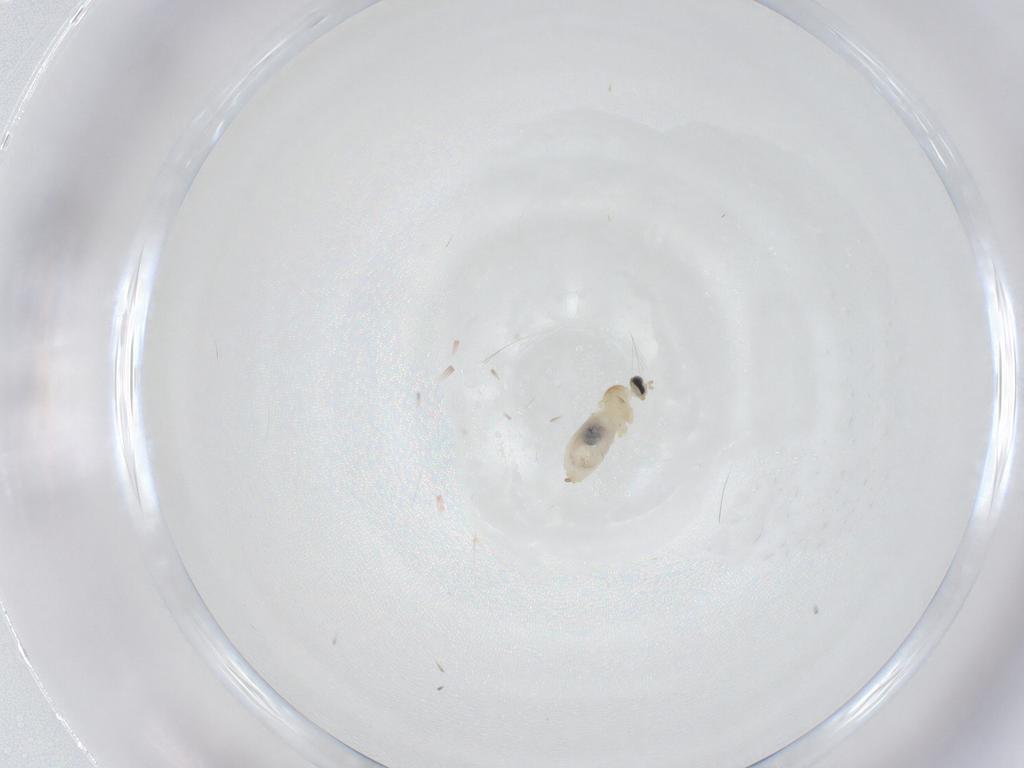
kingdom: Animalia
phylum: Arthropoda
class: Insecta
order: Diptera
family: Cecidomyiidae
